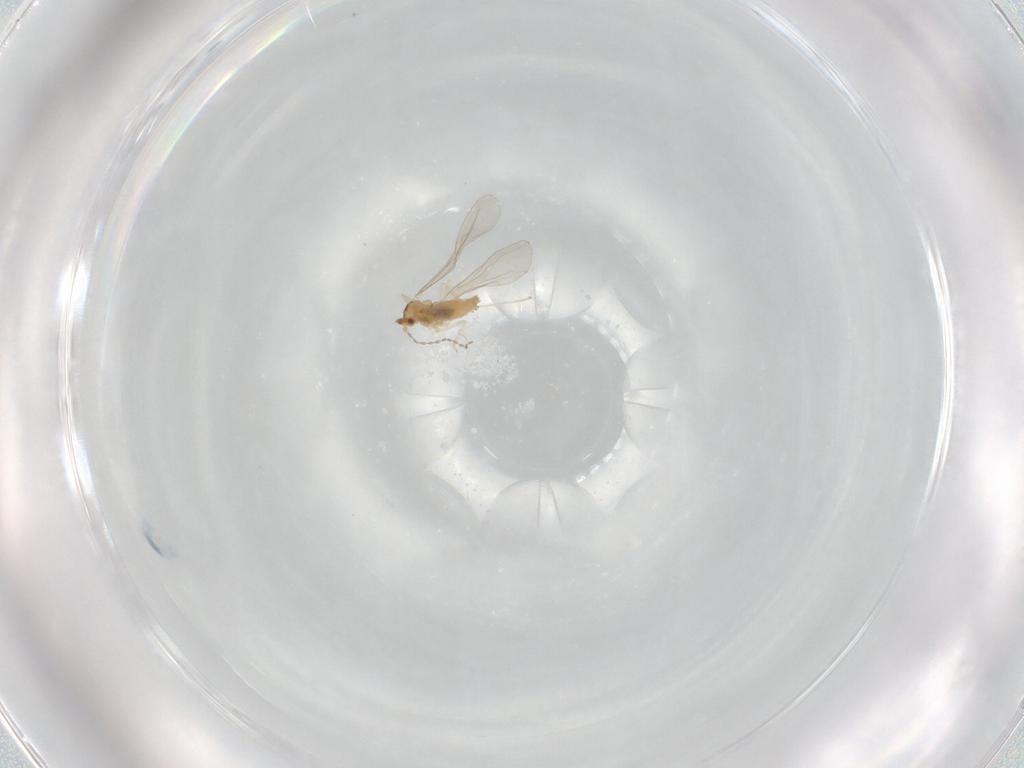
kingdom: Animalia
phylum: Arthropoda
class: Insecta
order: Diptera
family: Cecidomyiidae
